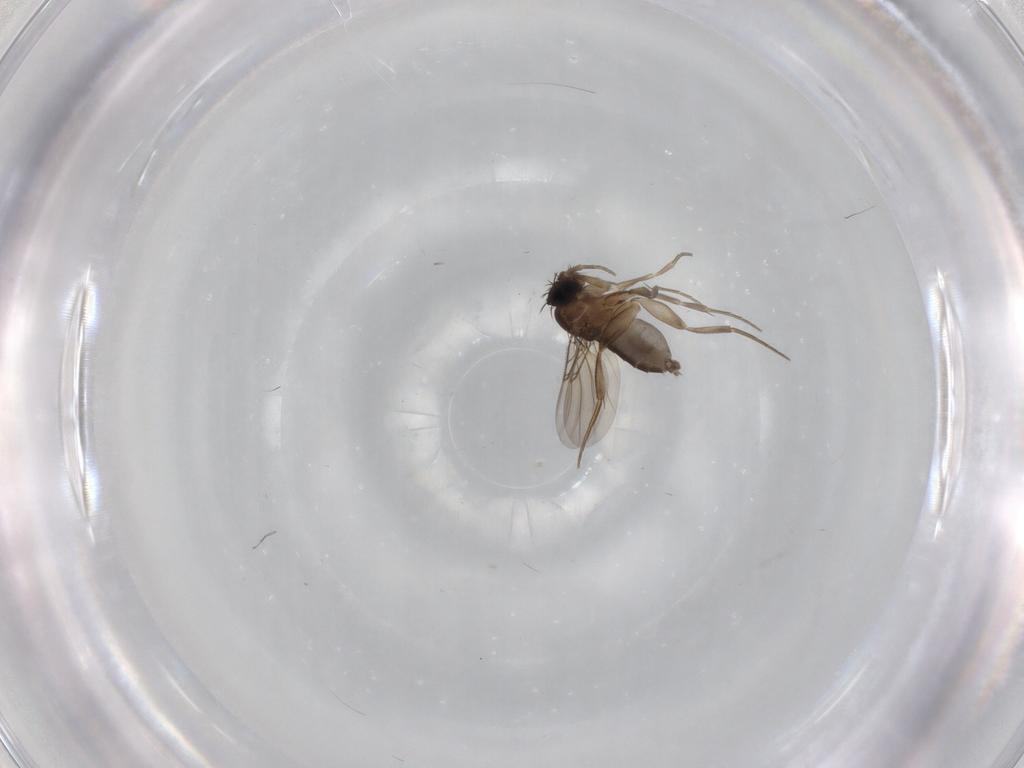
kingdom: Animalia
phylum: Arthropoda
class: Insecta
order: Diptera
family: Phoridae
